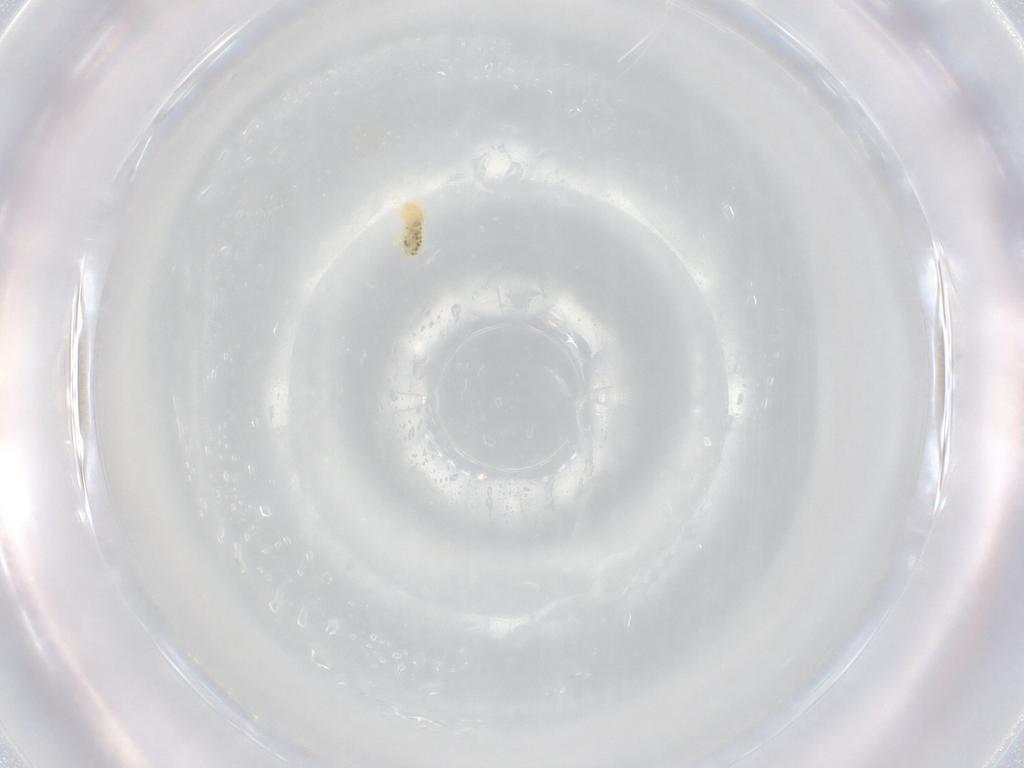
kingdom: Animalia
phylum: Arthropoda
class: Arachnida
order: Trombidiformes
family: Tetranychidae
